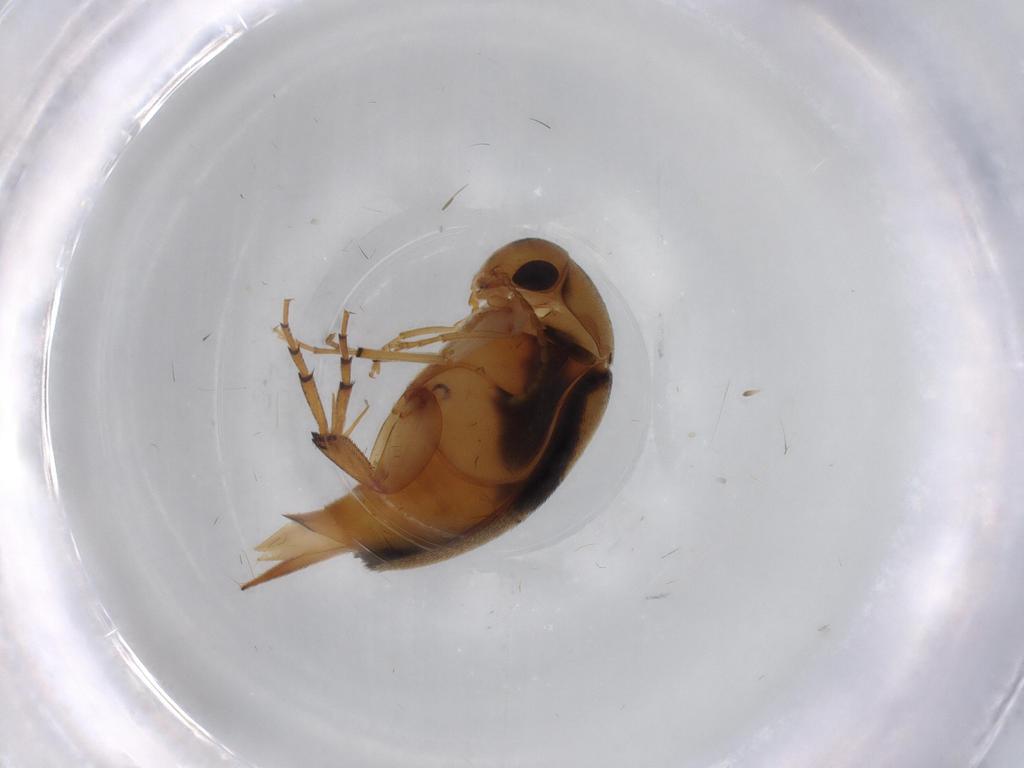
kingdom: Animalia
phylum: Arthropoda
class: Insecta
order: Coleoptera
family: Mordellidae
